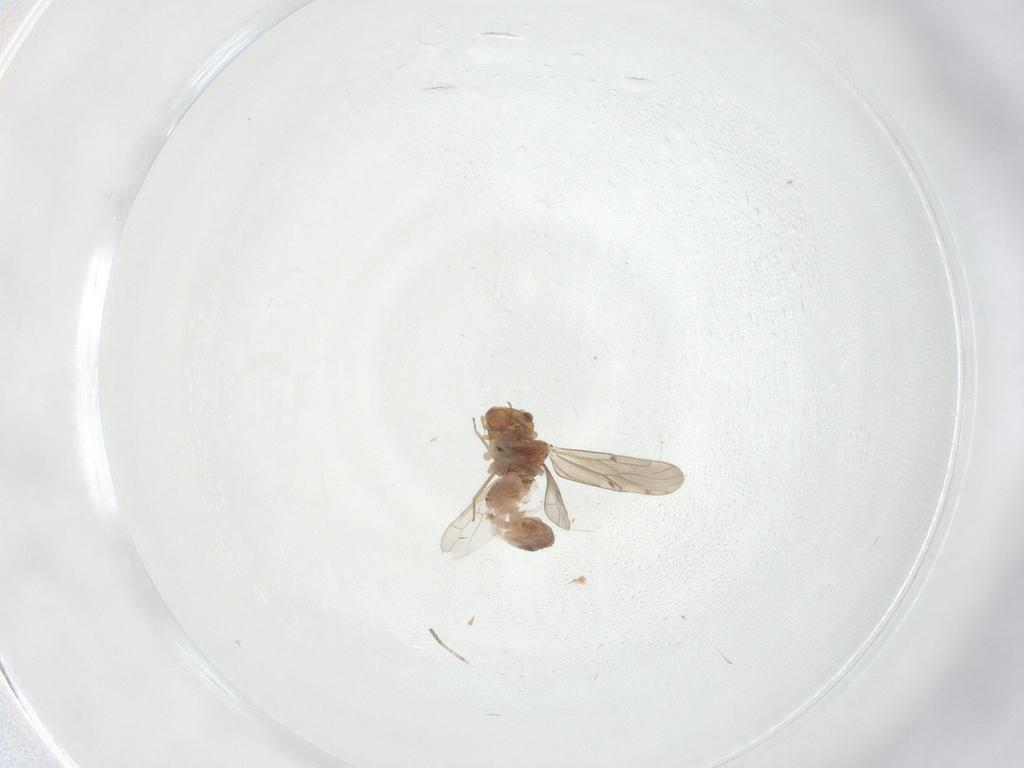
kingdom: Animalia
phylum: Arthropoda
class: Insecta
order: Psocodea
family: Ectopsocidae
